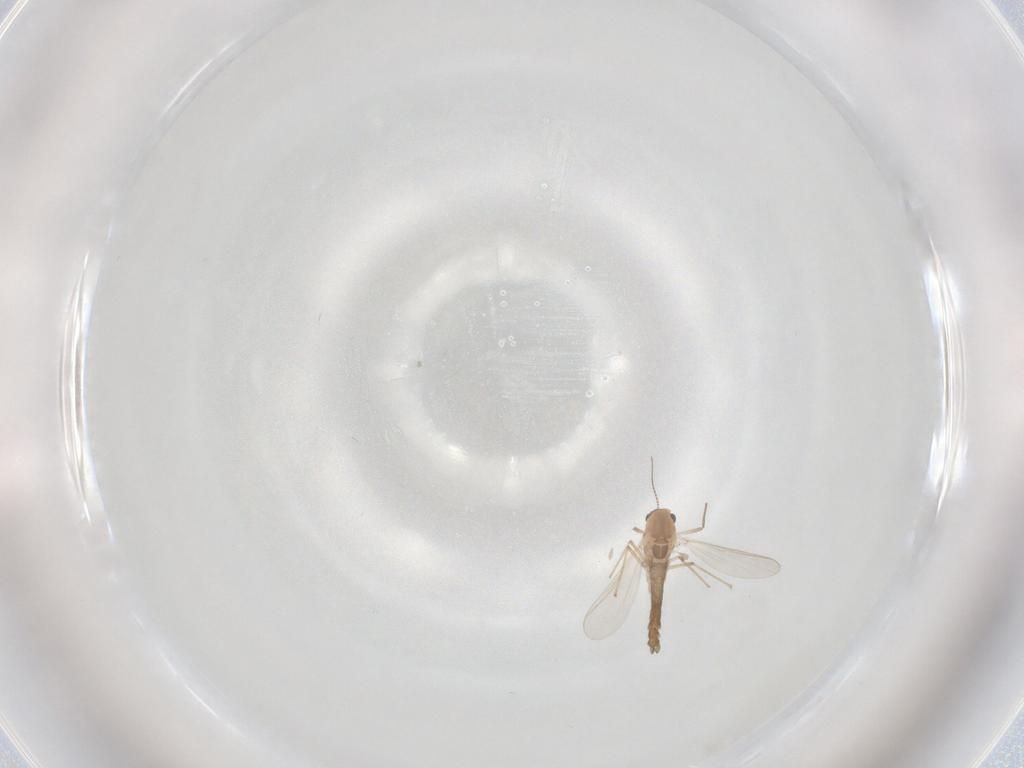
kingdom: Animalia
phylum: Arthropoda
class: Insecta
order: Diptera
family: Chironomidae
